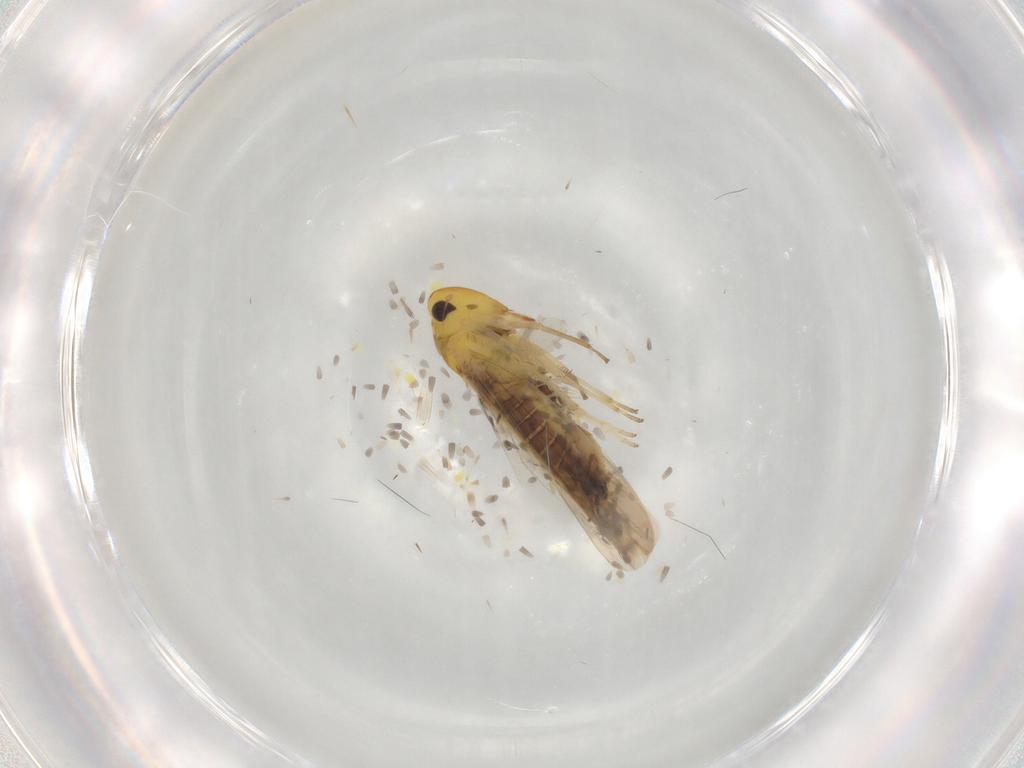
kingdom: Animalia
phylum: Arthropoda
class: Insecta
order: Hemiptera
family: Cicadellidae
